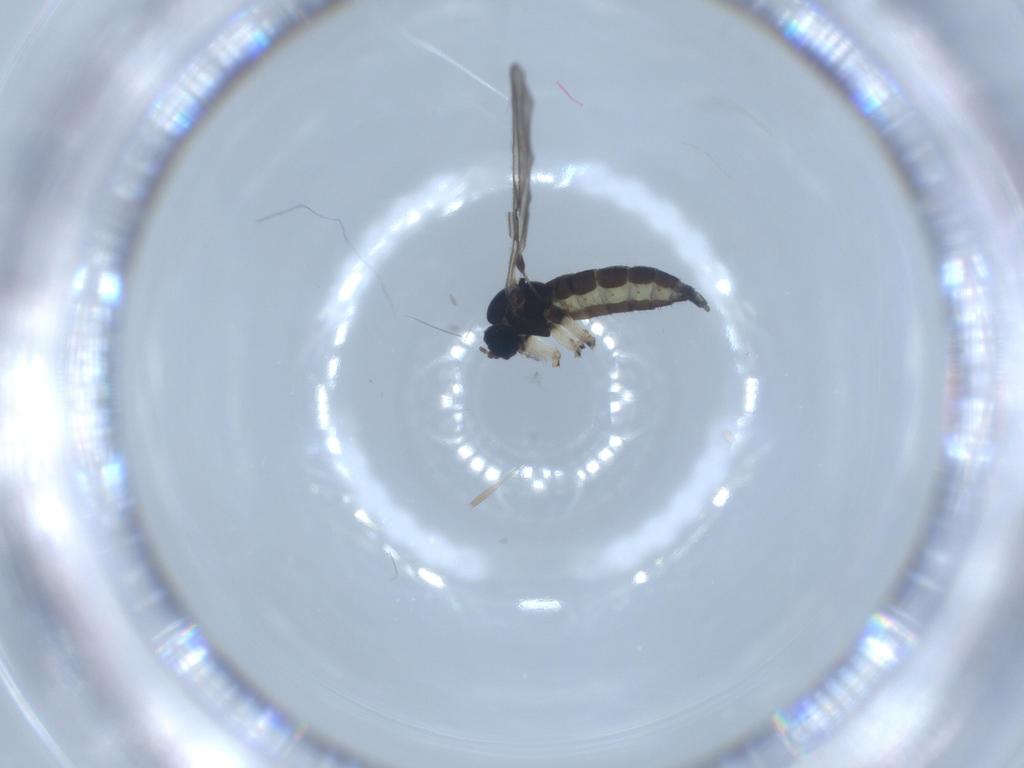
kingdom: Animalia
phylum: Arthropoda
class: Insecta
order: Diptera
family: Sciaridae
